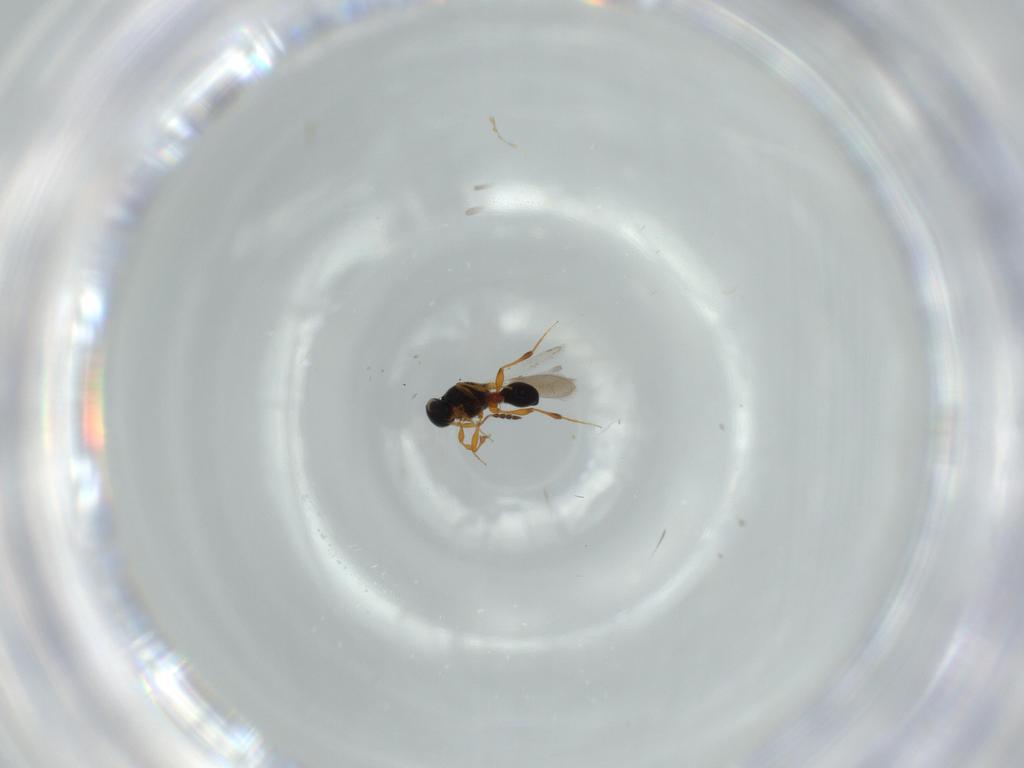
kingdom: Animalia
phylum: Arthropoda
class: Insecta
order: Hymenoptera
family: Platygastridae
